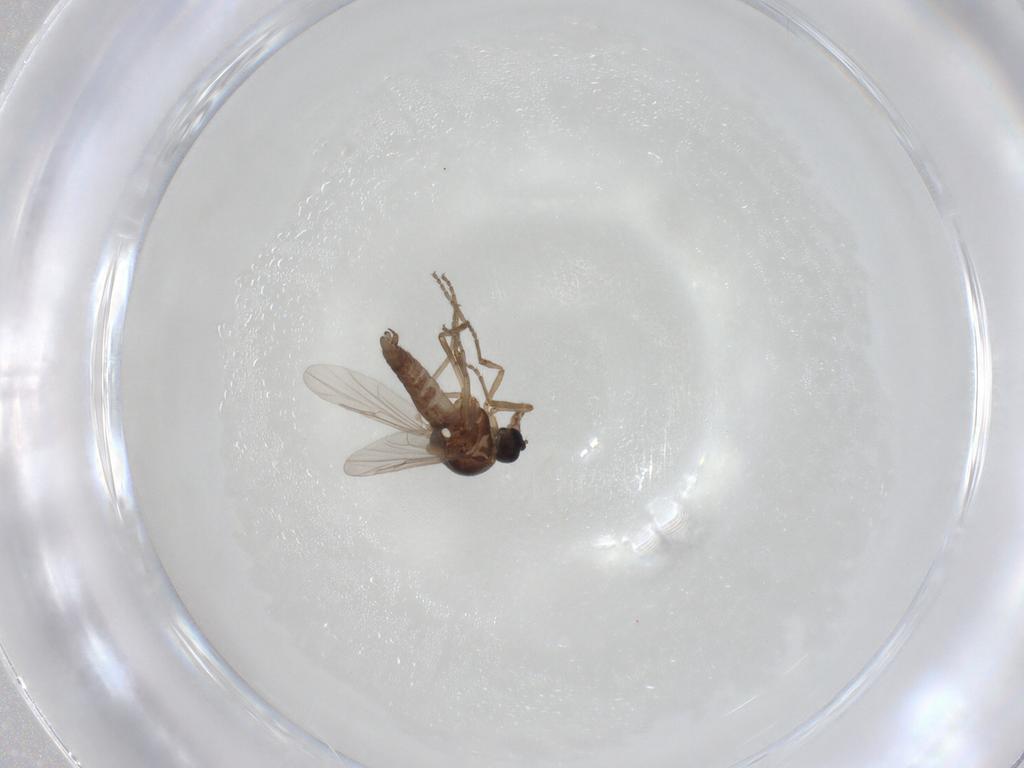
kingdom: Animalia
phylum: Arthropoda
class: Insecta
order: Diptera
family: Ceratopogonidae
